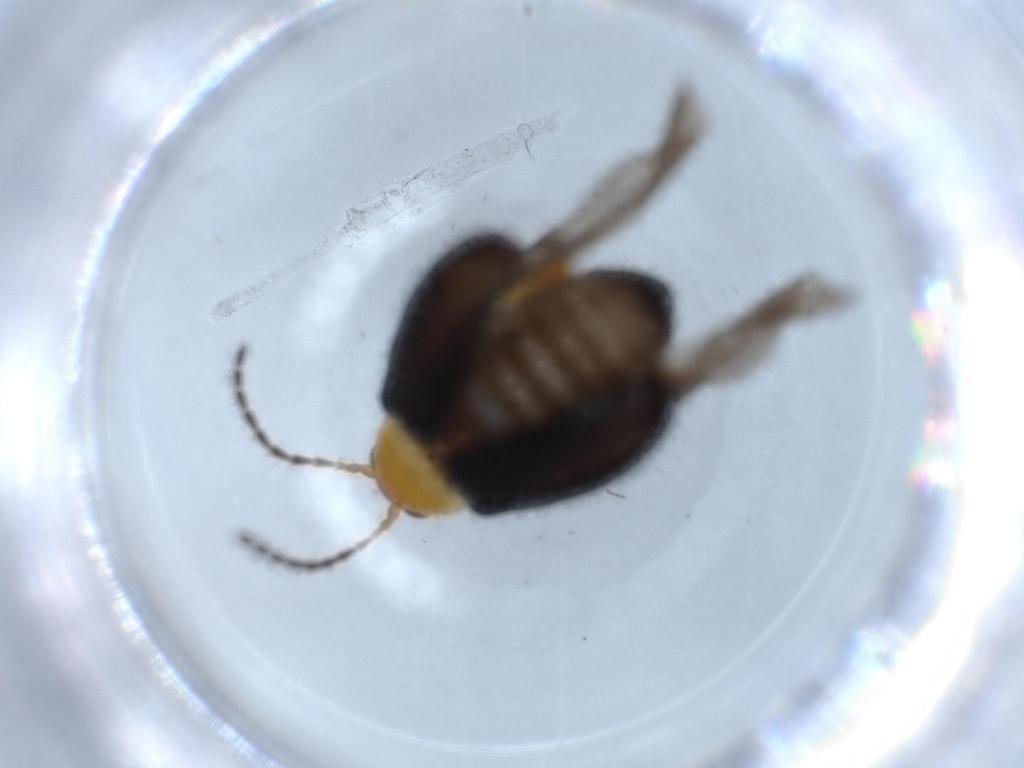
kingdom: Animalia
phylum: Arthropoda
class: Insecta
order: Coleoptera
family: Chrysomelidae
